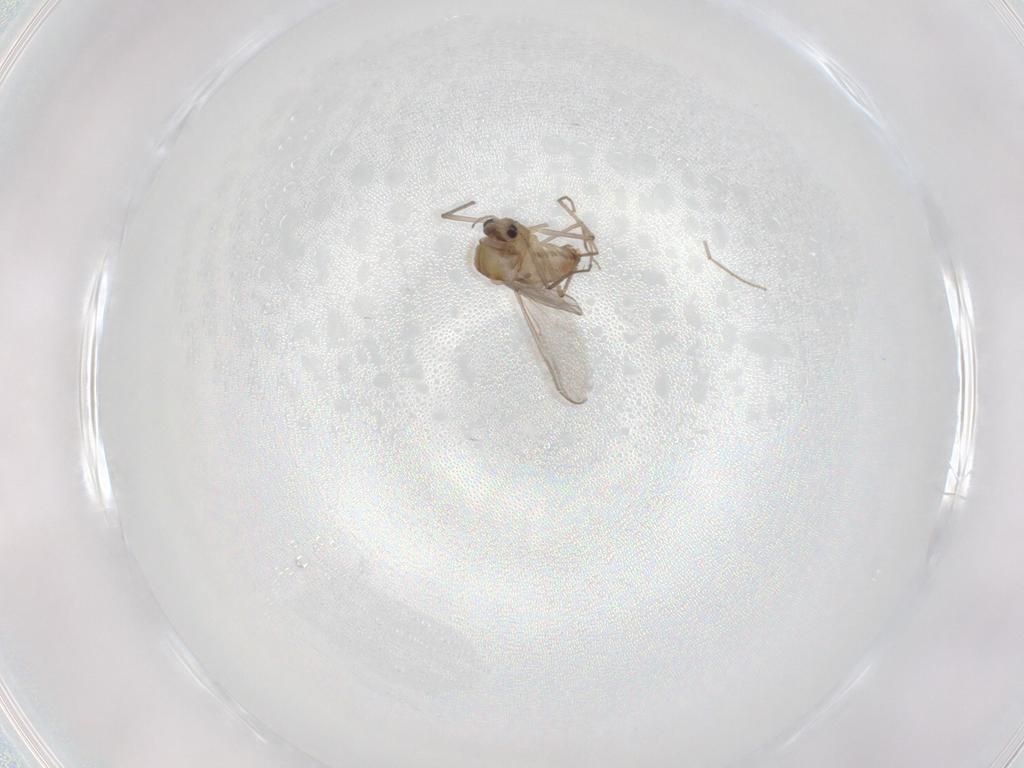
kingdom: Animalia
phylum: Arthropoda
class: Insecta
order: Diptera
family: Chironomidae
